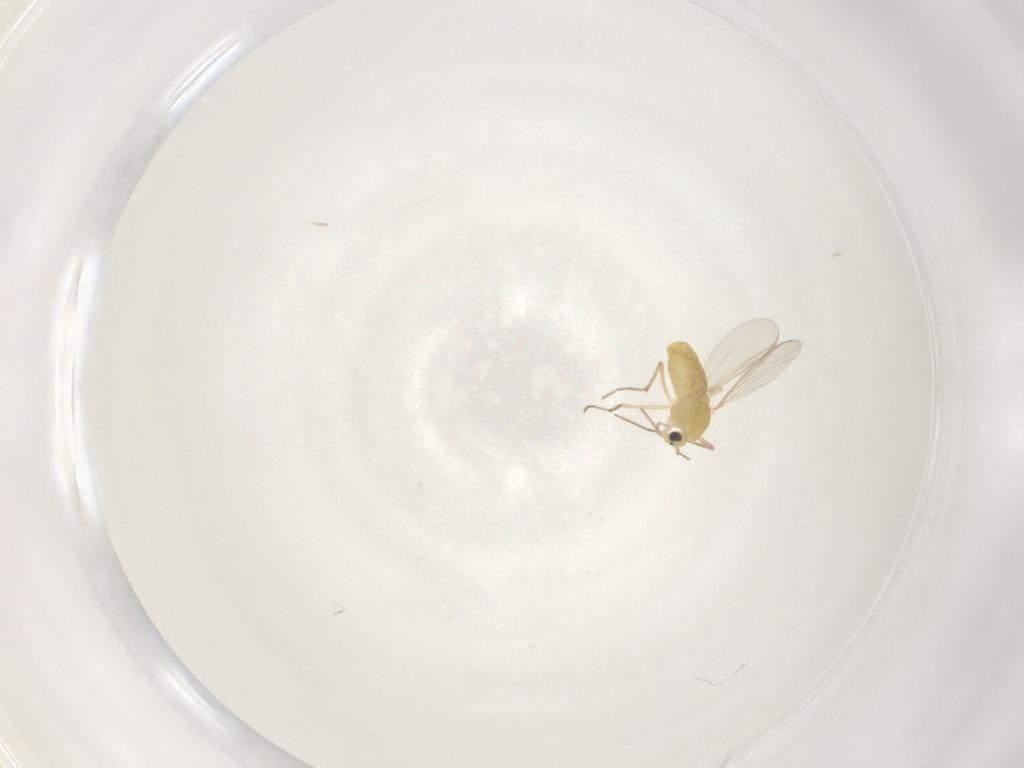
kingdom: Animalia
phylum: Arthropoda
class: Insecta
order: Diptera
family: Chironomidae
